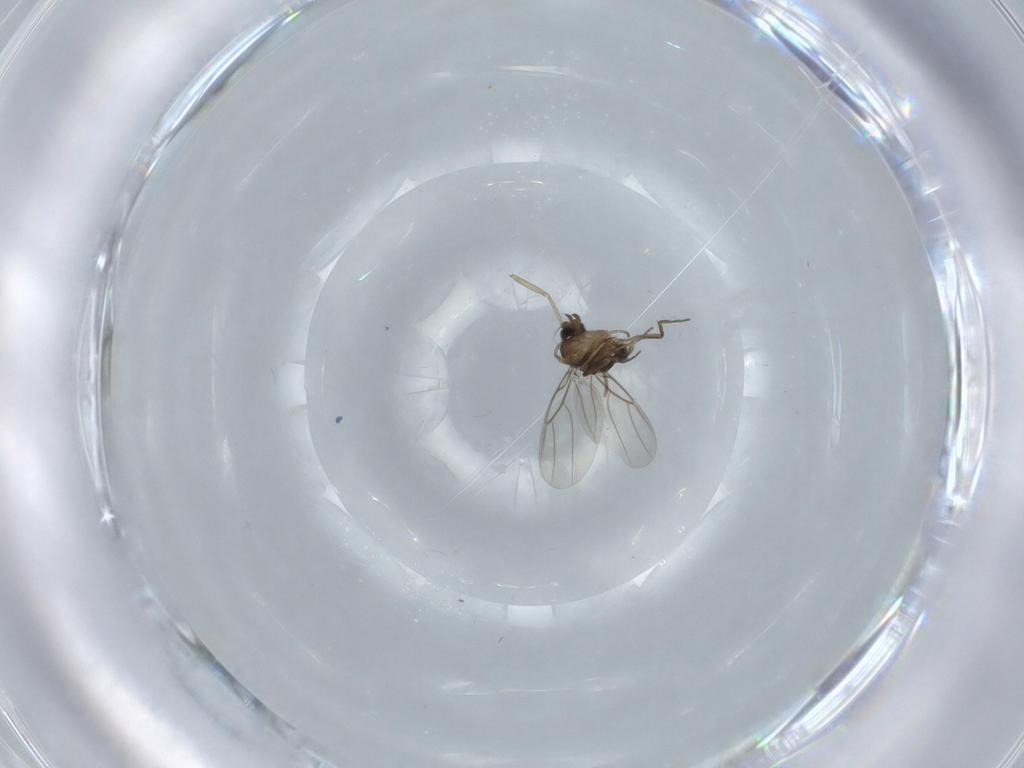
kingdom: Animalia
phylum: Arthropoda
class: Insecta
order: Diptera
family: Phoridae
